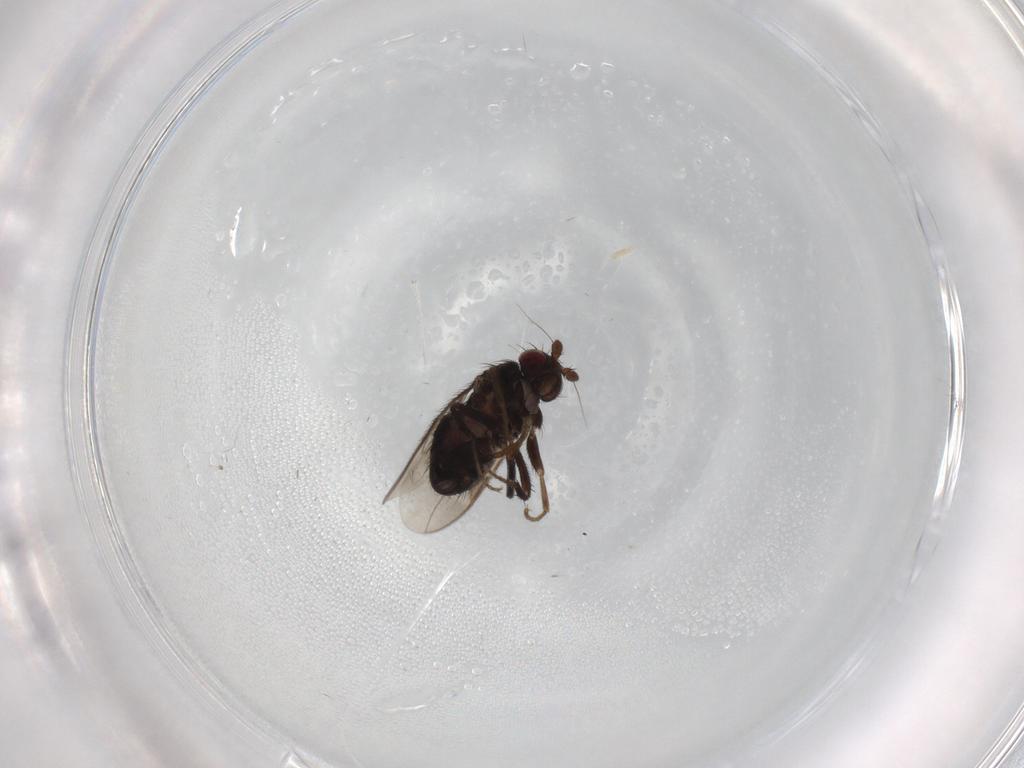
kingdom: Animalia
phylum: Arthropoda
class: Insecta
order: Diptera
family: Sphaeroceridae
